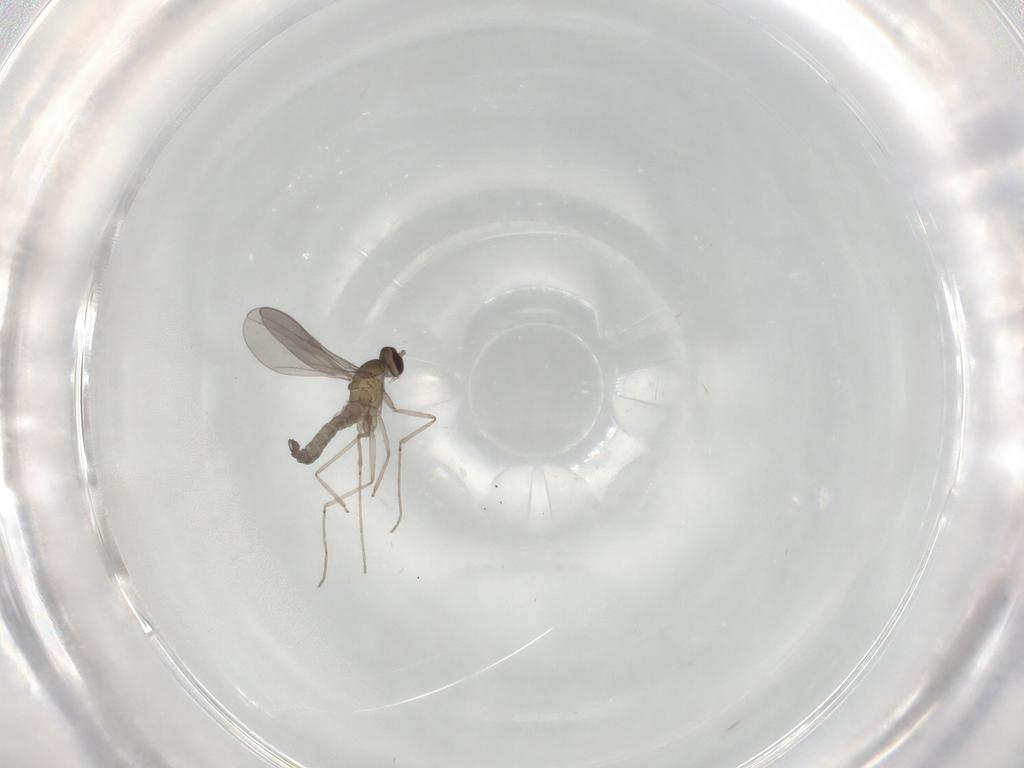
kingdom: Animalia
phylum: Arthropoda
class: Insecta
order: Diptera
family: Cecidomyiidae
